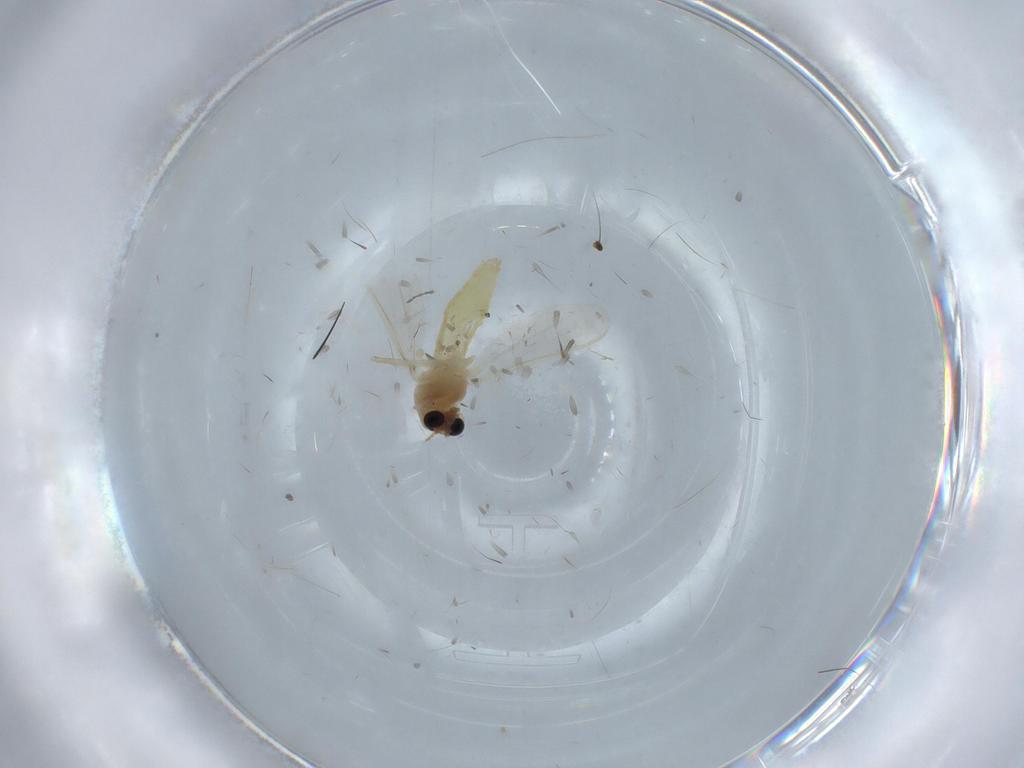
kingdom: Animalia
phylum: Arthropoda
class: Insecta
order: Diptera
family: Chironomidae
